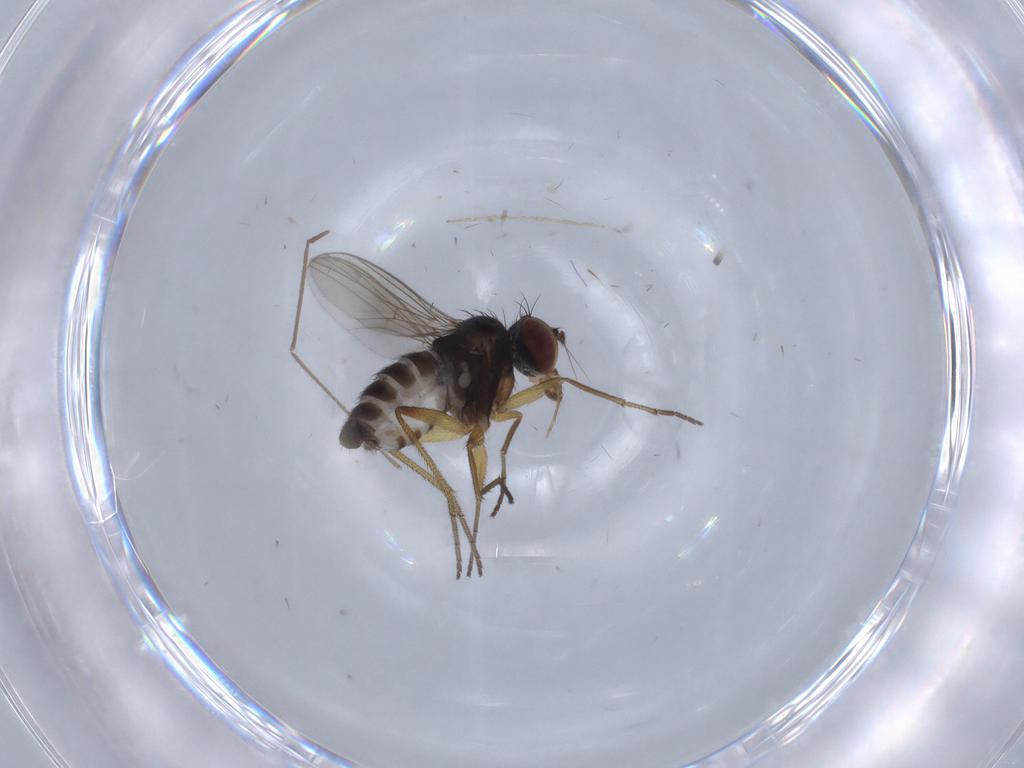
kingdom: Animalia
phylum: Arthropoda
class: Insecta
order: Diptera
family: Dolichopodidae
